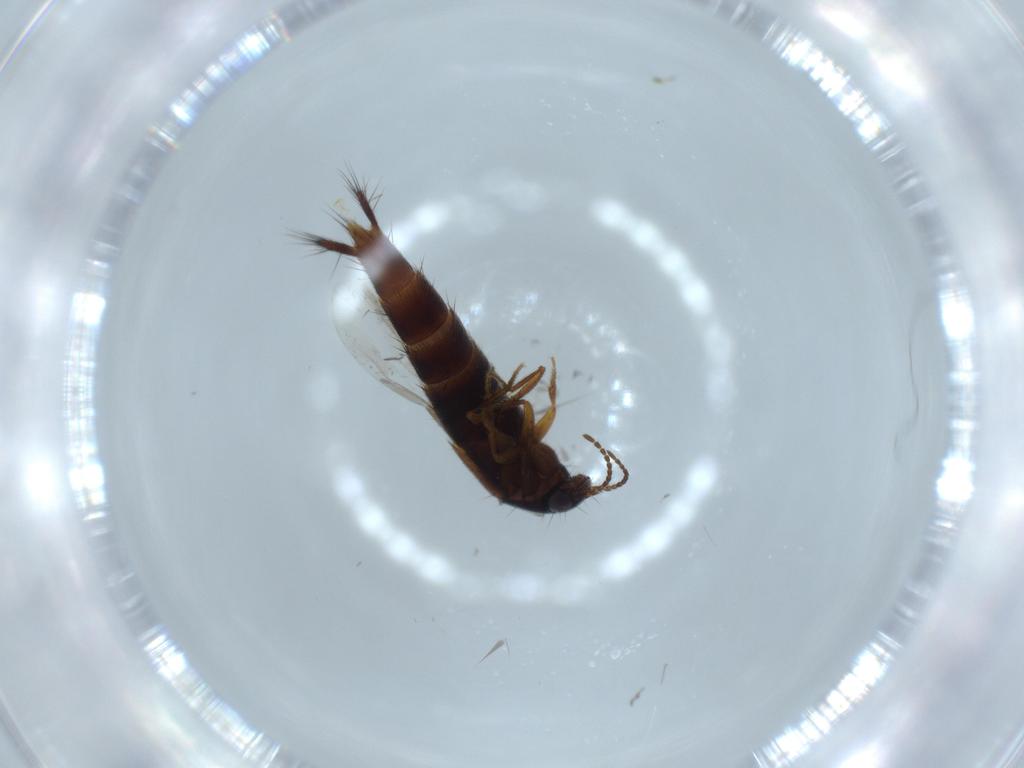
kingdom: Animalia
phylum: Arthropoda
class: Insecta
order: Coleoptera
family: Staphylinidae
